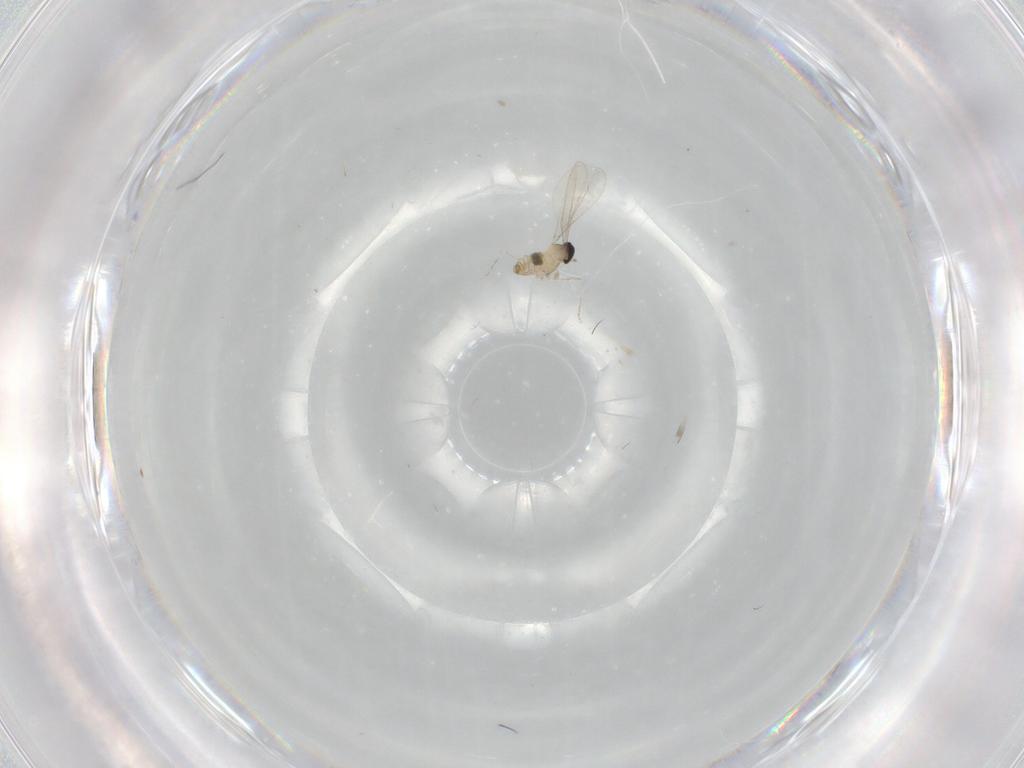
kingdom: Animalia
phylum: Arthropoda
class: Insecta
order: Diptera
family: Cecidomyiidae
